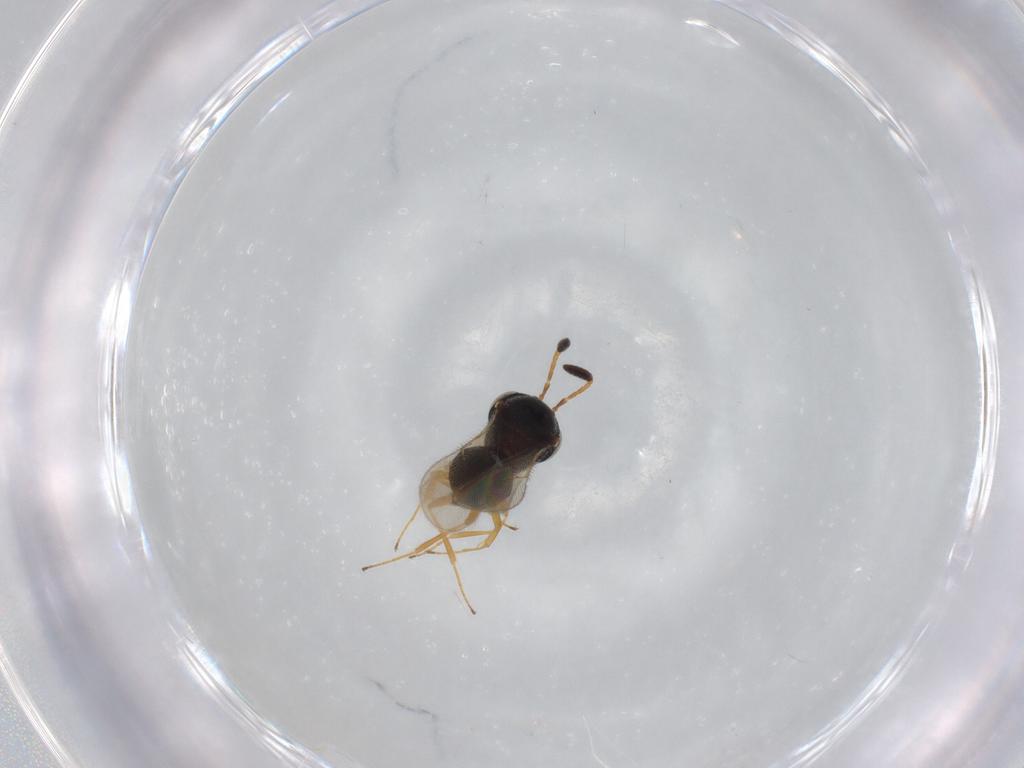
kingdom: Animalia
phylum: Arthropoda
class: Insecta
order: Hymenoptera
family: Diapriidae
